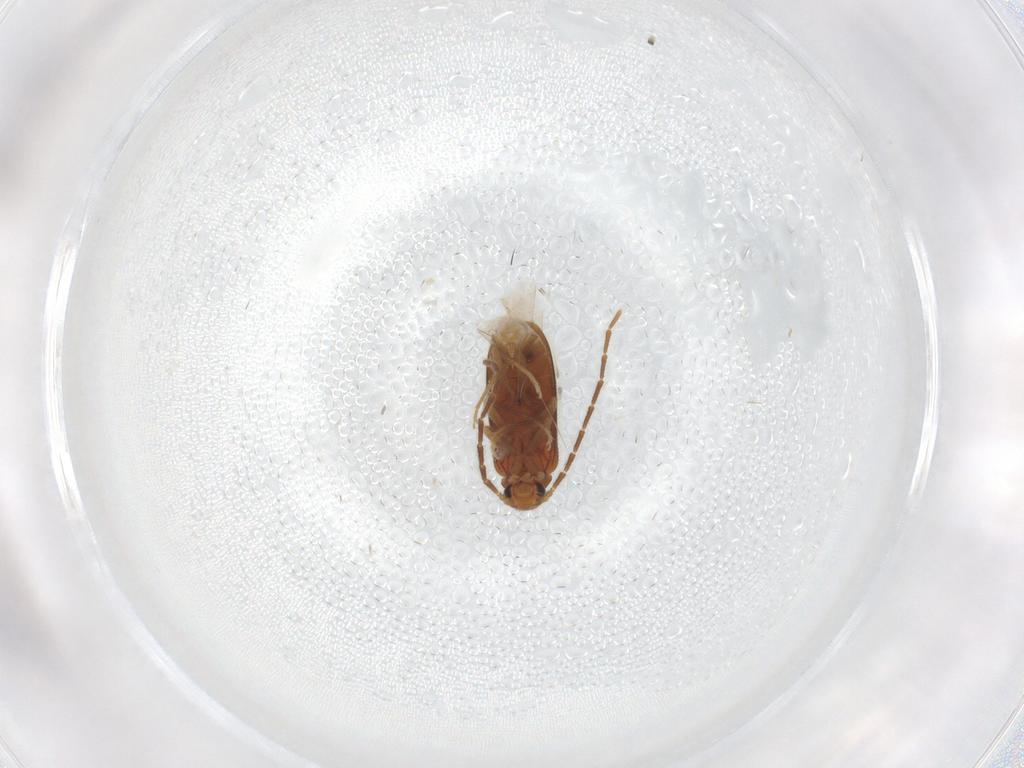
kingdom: Animalia
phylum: Arthropoda
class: Insecta
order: Coleoptera
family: Scraptiidae
